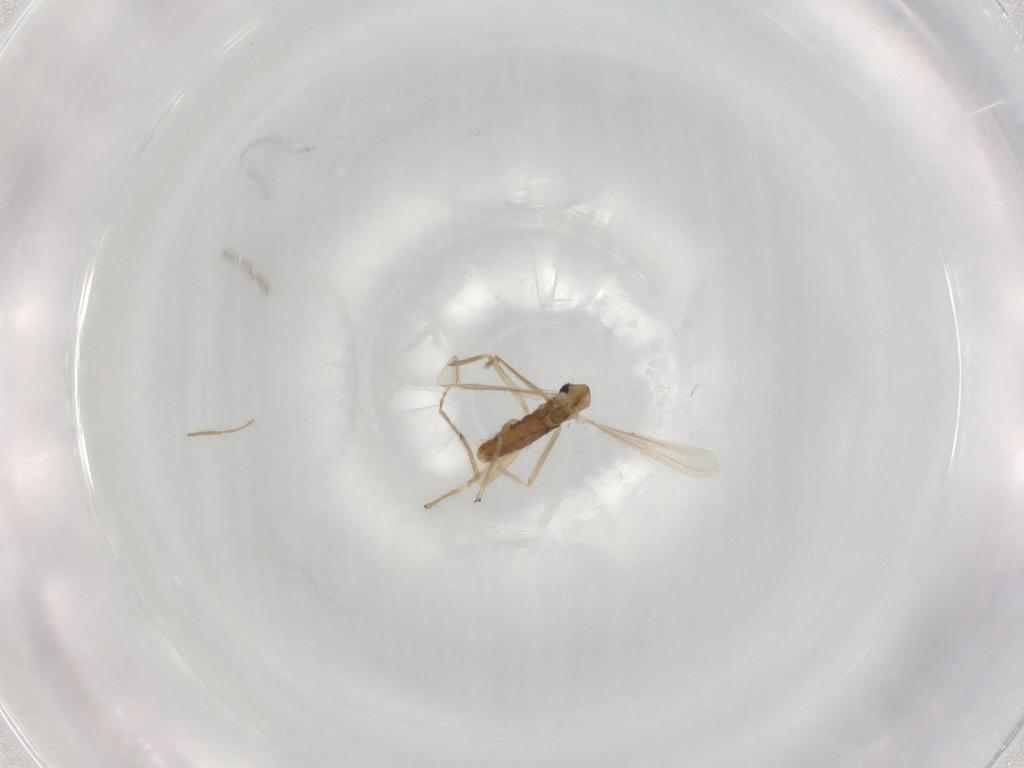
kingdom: Animalia
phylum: Arthropoda
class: Insecta
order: Diptera
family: Chironomidae
